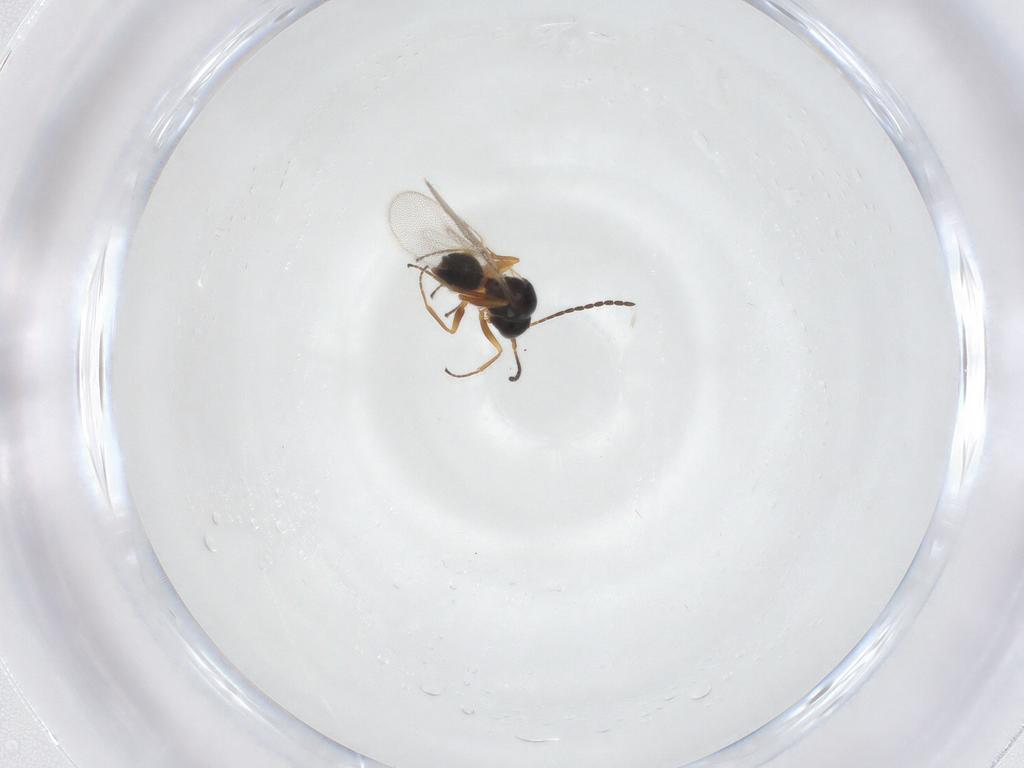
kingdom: Animalia
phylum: Arthropoda
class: Insecta
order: Hymenoptera
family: Figitidae
